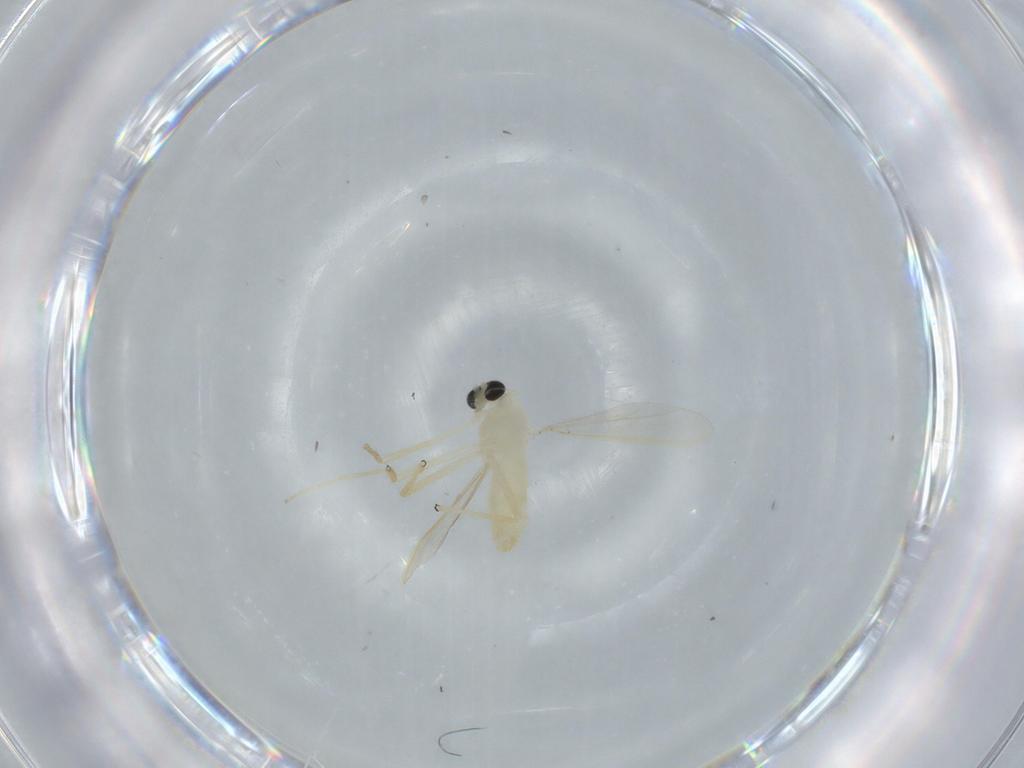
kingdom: Animalia
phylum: Arthropoda
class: Insecta
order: Diptera
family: Chironomidae
